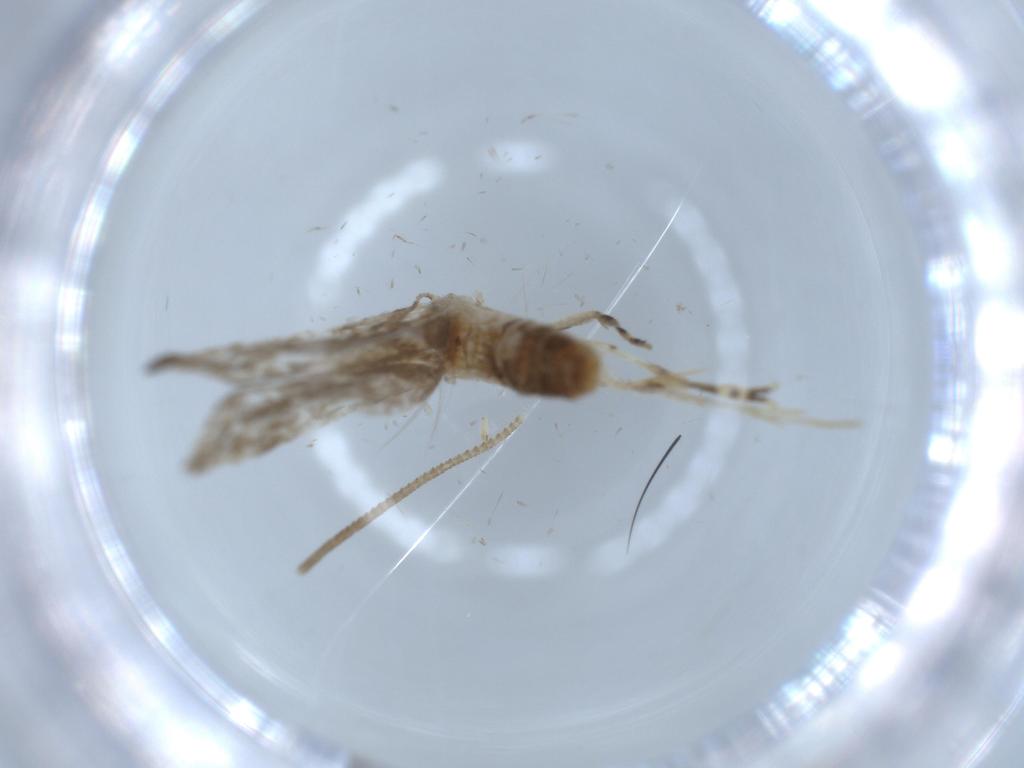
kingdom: Animalia
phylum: Arthropoda
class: Insecta
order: Lepidoptera
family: Tineidae
